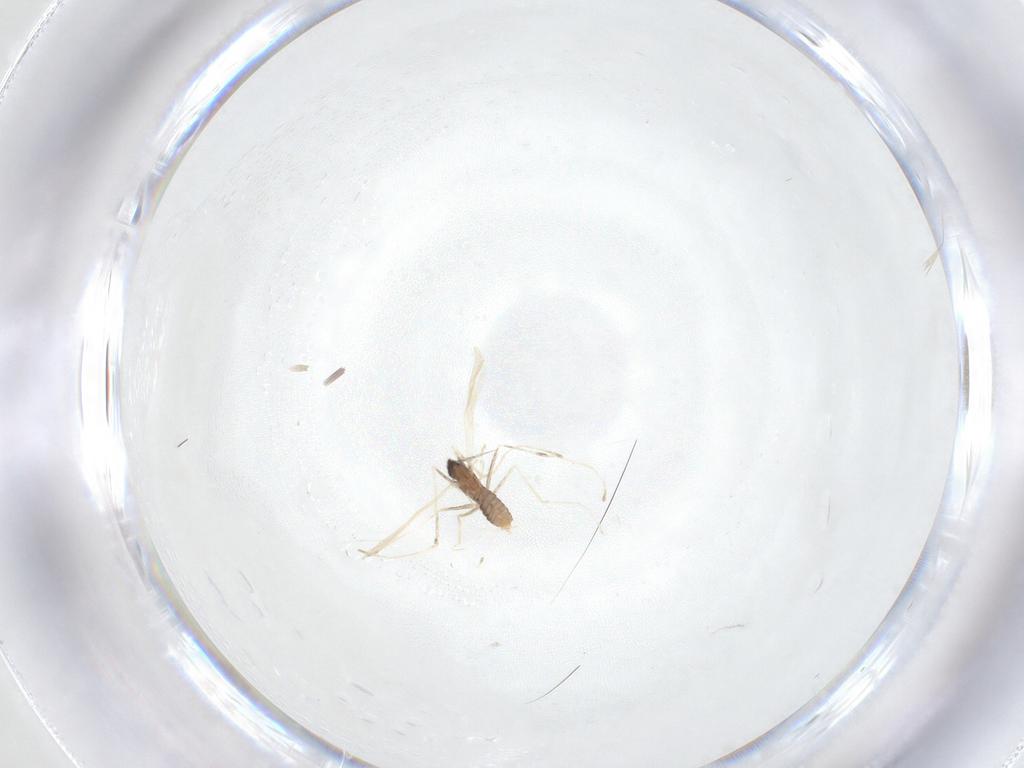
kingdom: Animalia
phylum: Arthropoda
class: Insecta
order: Diptera
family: Cecidomyiidae
